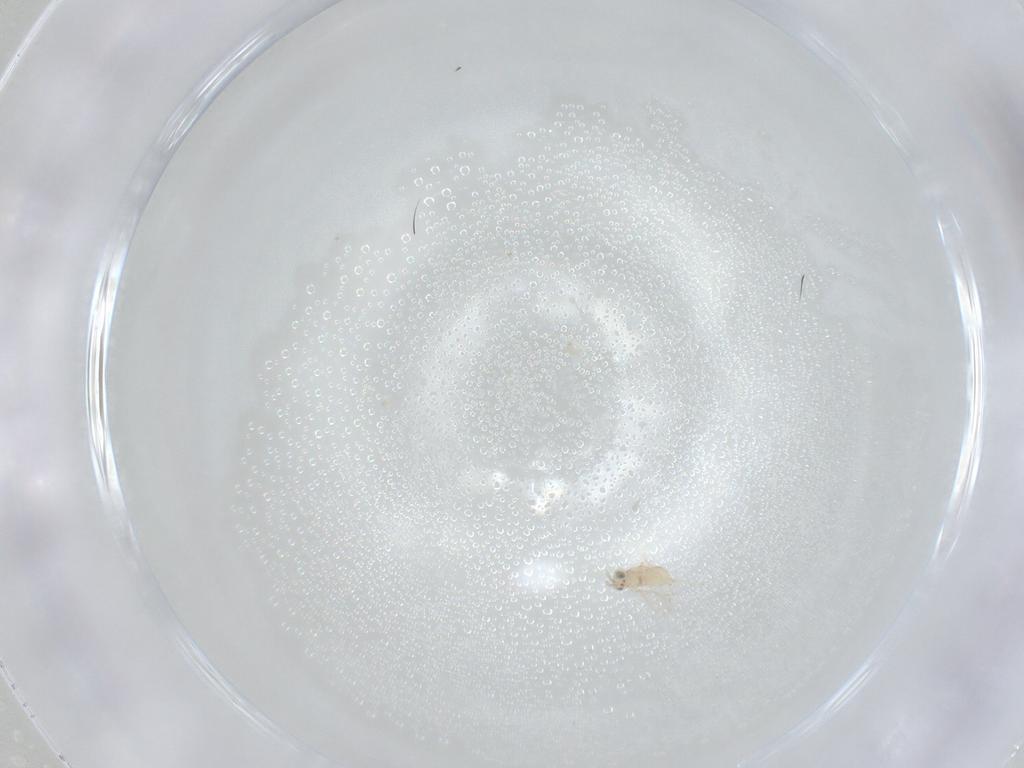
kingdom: Animalia
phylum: Arthropoda
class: Insecta
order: Hymenoptera
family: Aphelinidae
